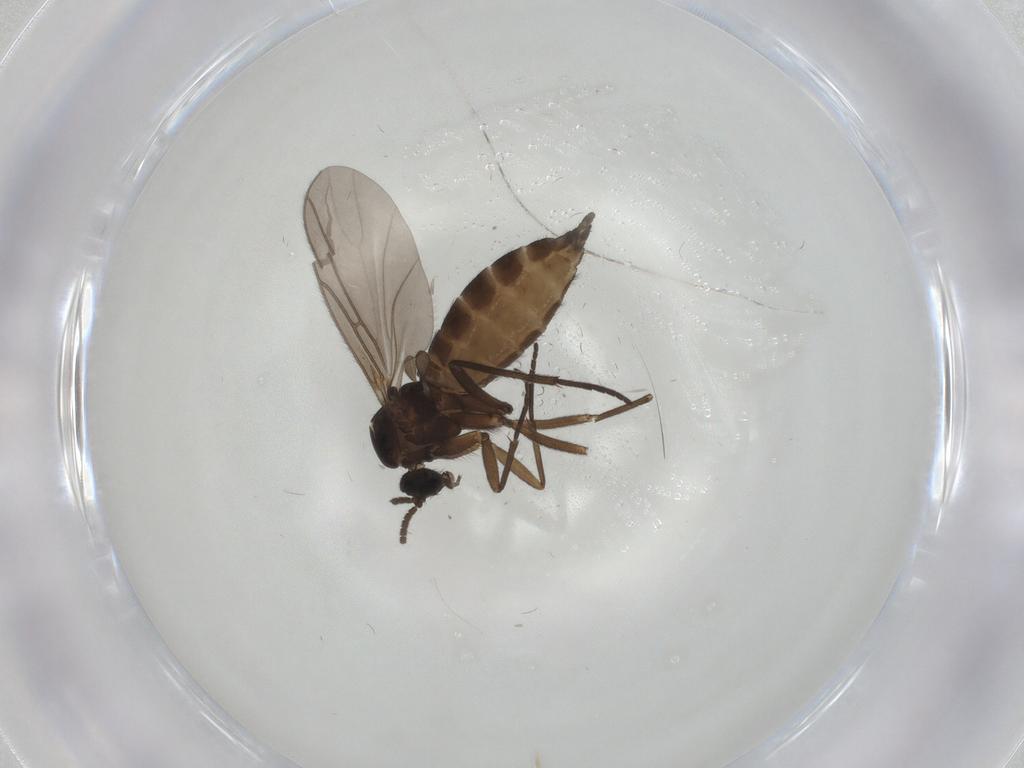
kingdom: Animalia
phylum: Arthropoda
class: Insecta
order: Diptera
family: Sciaridae
